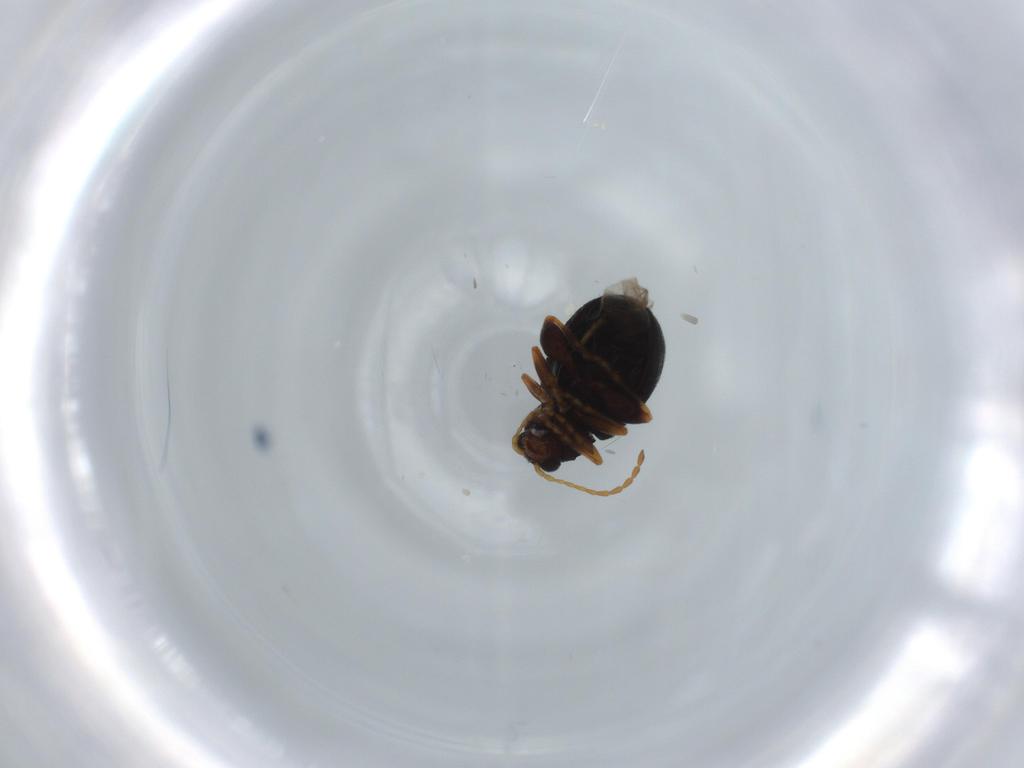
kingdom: Animalia
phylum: Arthropoda
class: Insecta
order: Coleoptera
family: Chrysomelidae
